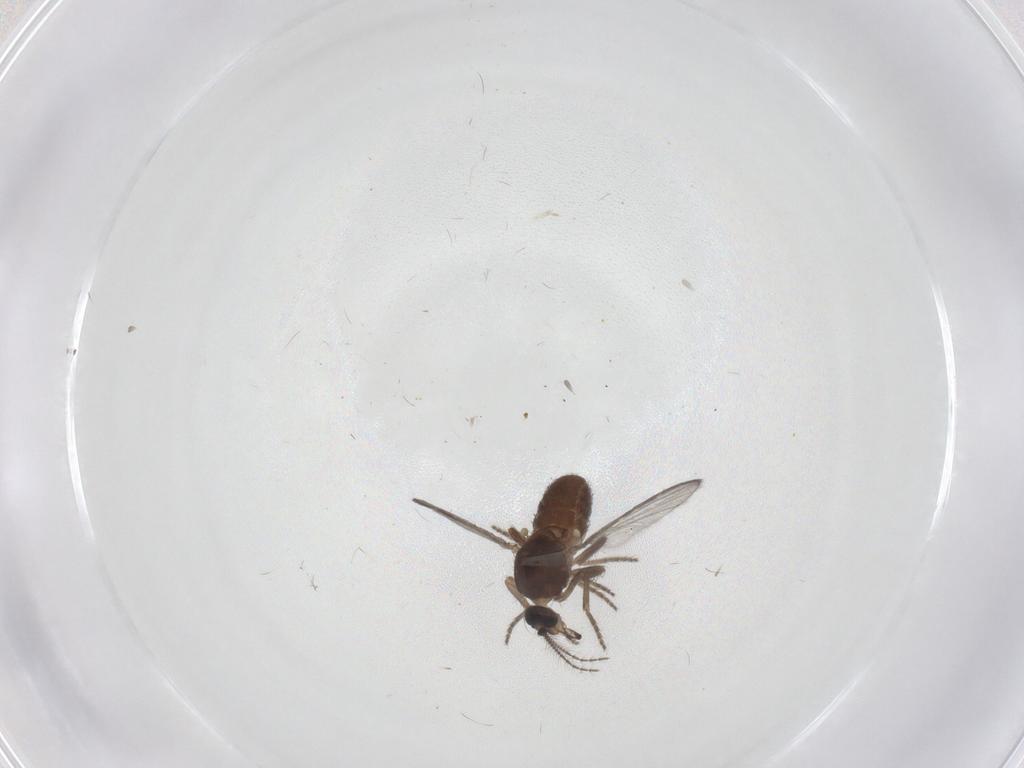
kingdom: Animalia
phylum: Arthropoda
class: Insecta
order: Diptera
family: Ceratopogonidae
